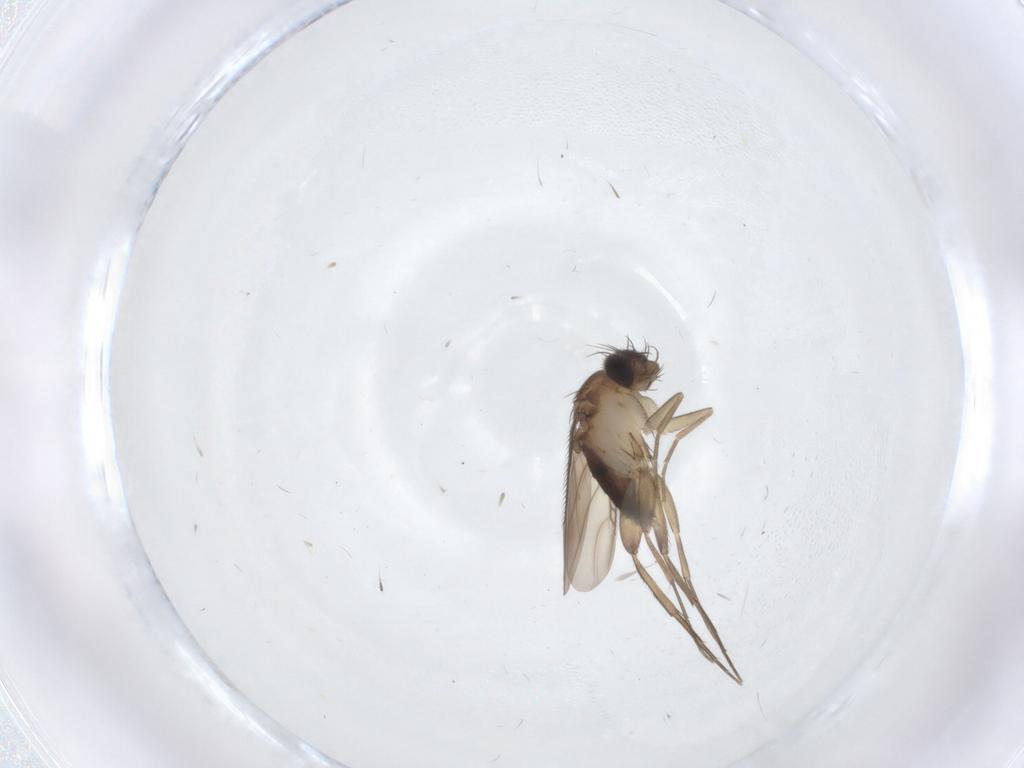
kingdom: Animalia
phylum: Arthropoda
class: Insecta
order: Diptera
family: Phoridae
